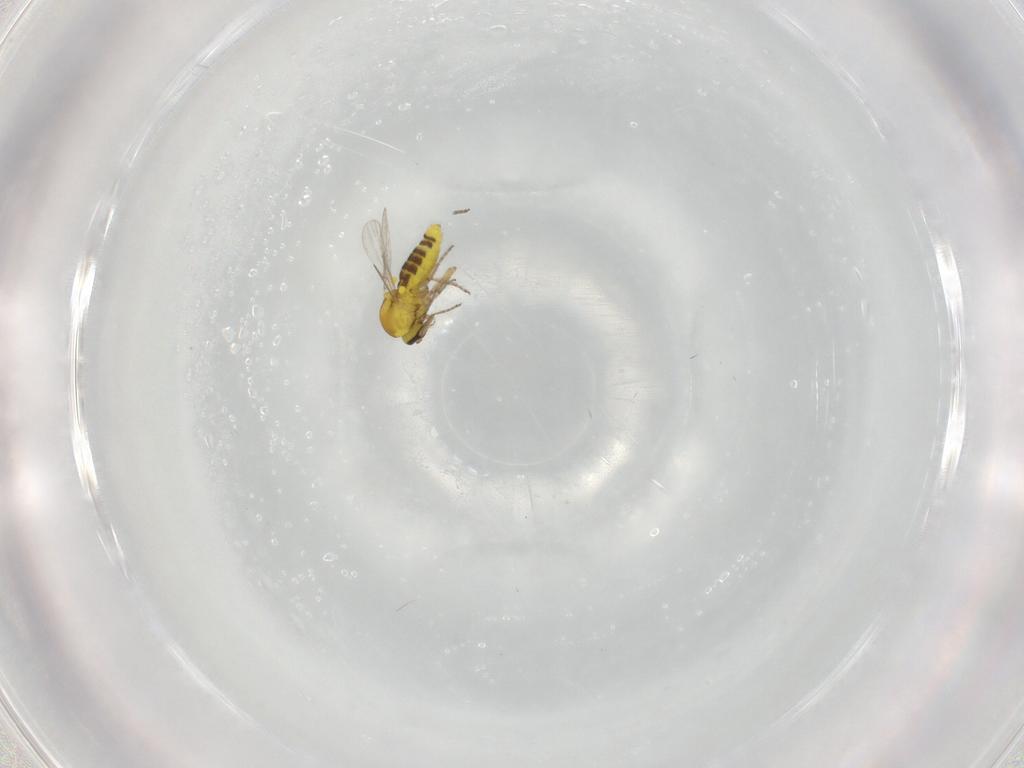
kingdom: Animalia
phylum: Arthropoda
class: Insecta
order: Diptera
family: Ceratopogonidae
